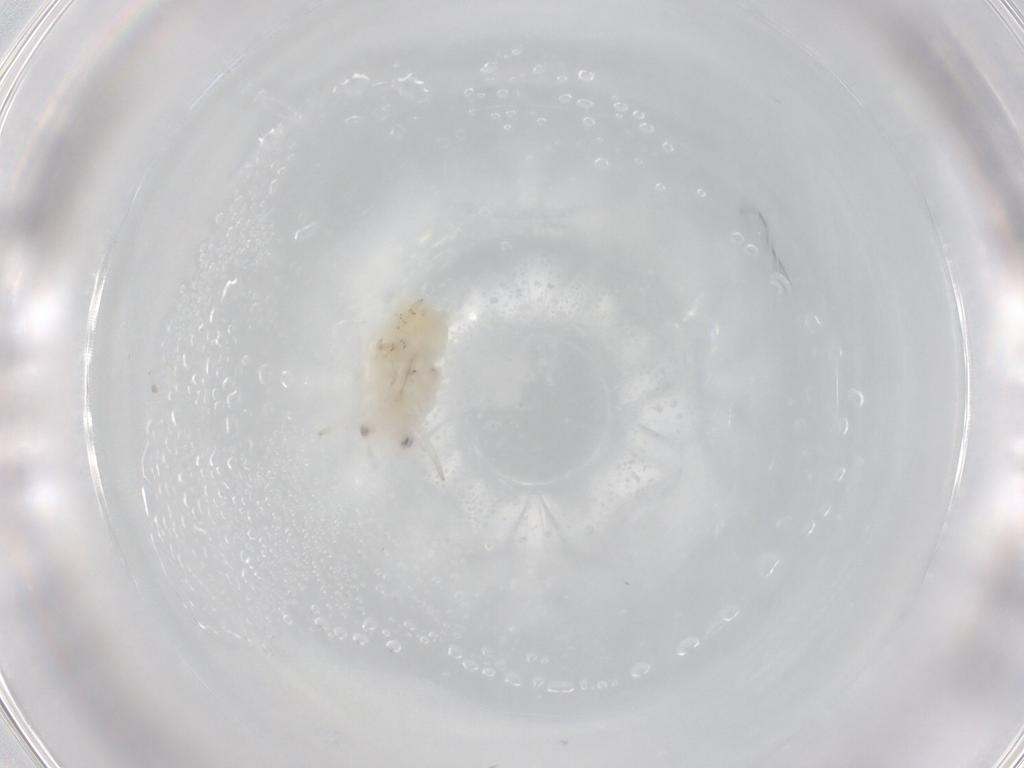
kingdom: Animalia
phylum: Arthropoda
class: Insecta
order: Hemiptera
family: Flatidae
